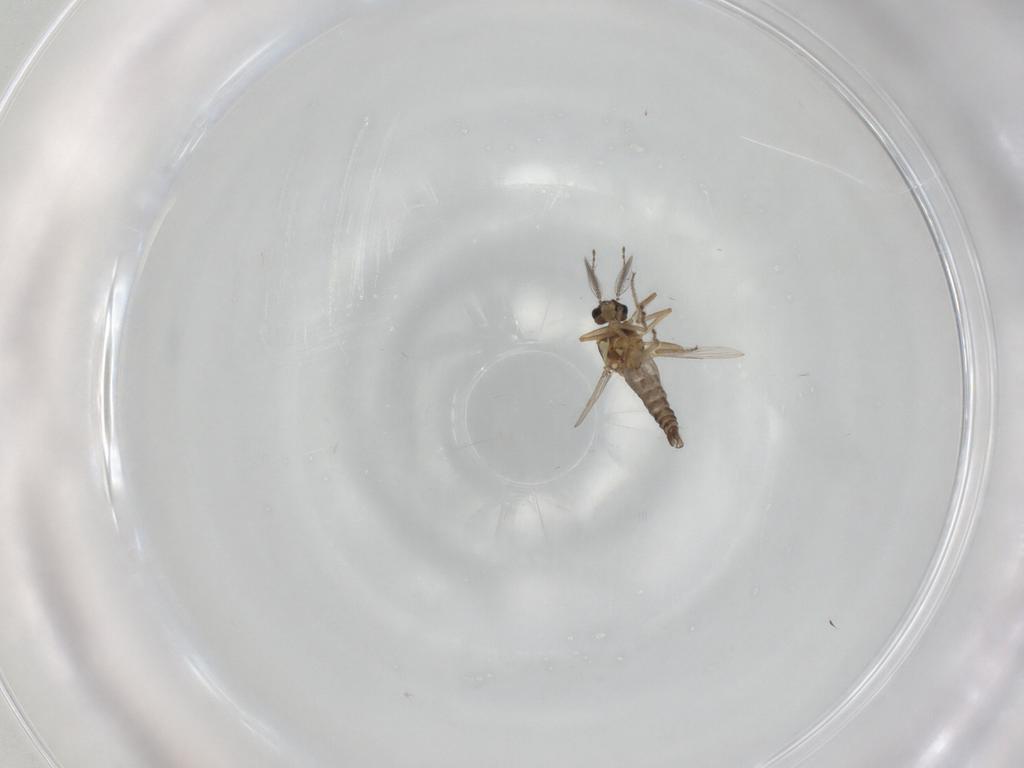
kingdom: Animalia
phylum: Arthropoda
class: Insecta
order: Diptera
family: Ceratopogonidae
